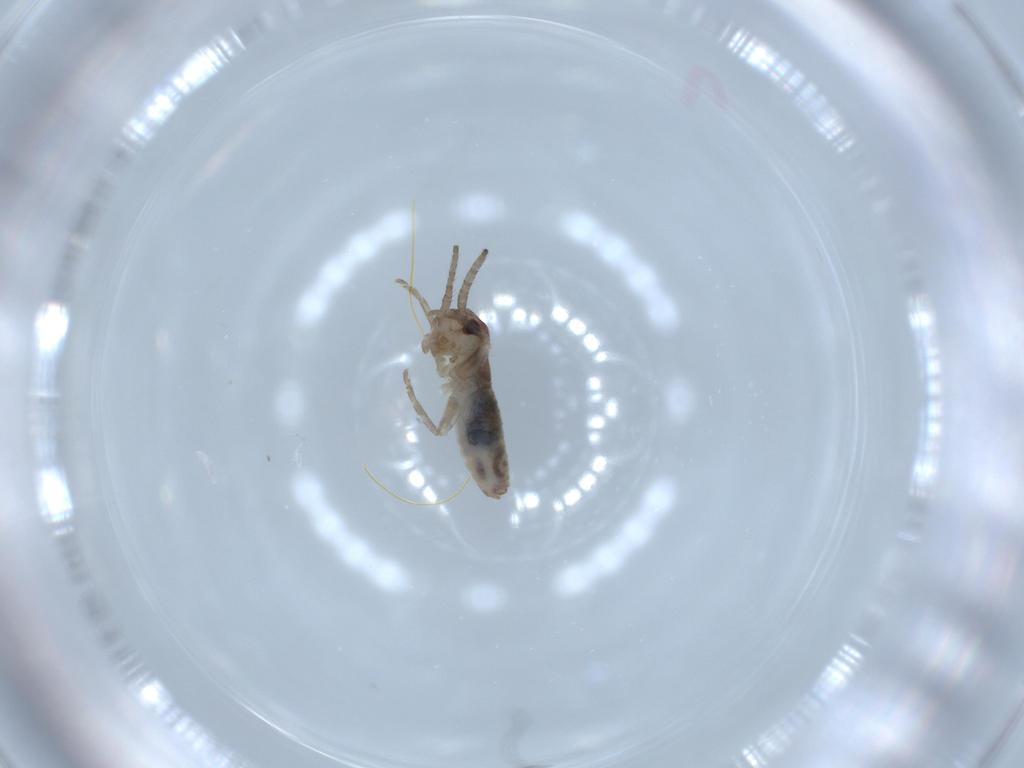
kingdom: Animalia
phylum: Arthropoda
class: Insecta
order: Orthoptera
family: Gryllidae
